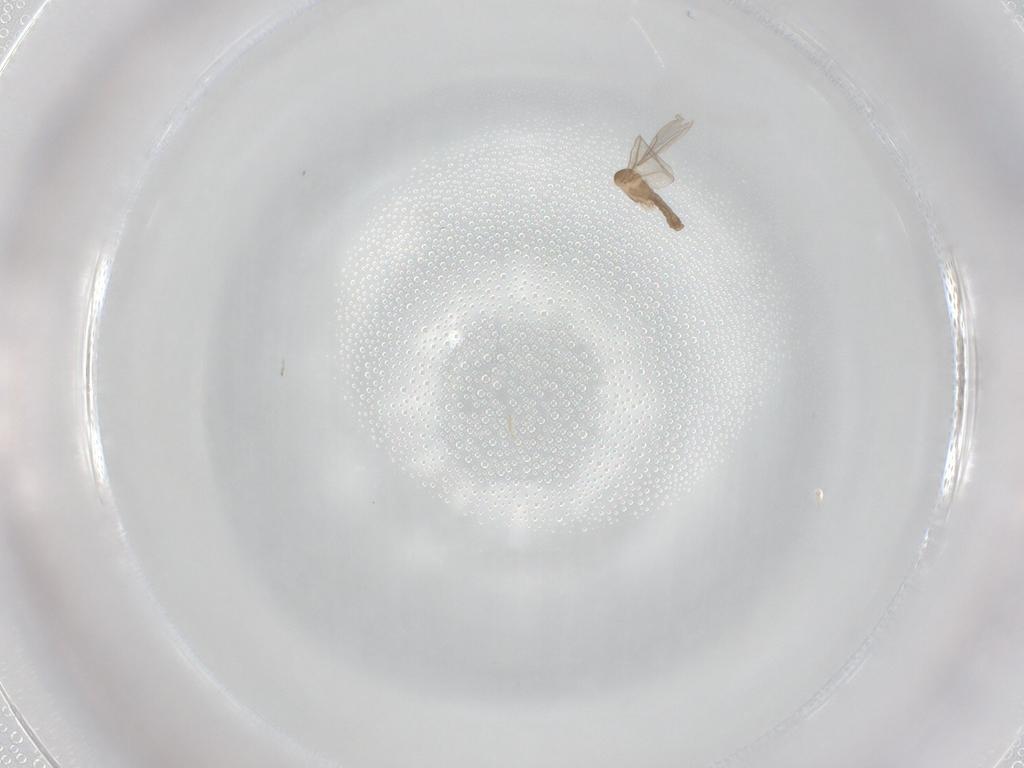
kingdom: Animalia
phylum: Arthropoda
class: Insecta
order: Diptera
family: Cecidomyiidae
